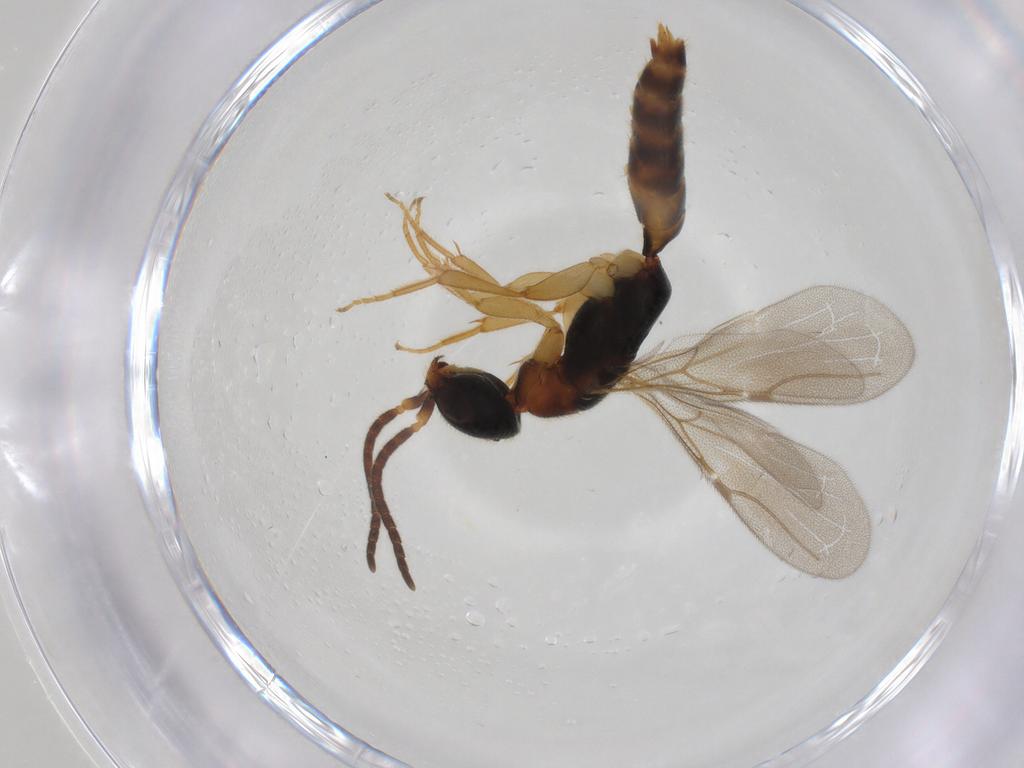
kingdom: Animalia
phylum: Arthropoda
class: Insecta
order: Hymenoptera
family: Bethylidae
